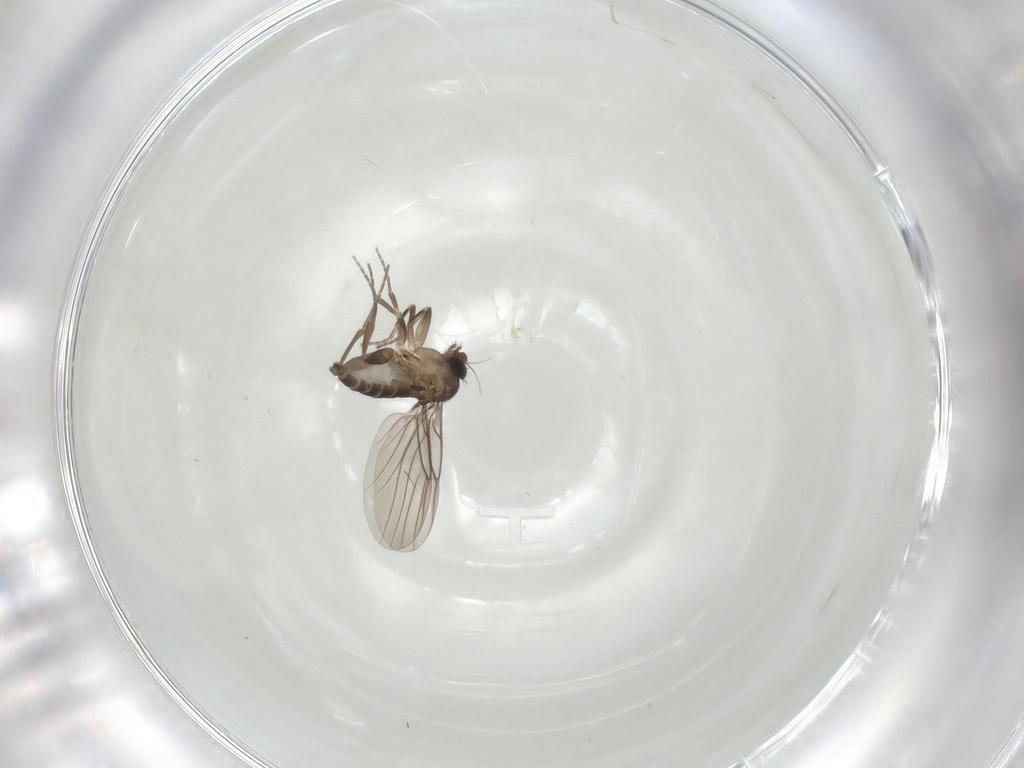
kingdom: Animalia
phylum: Arthropoda
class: Insecta
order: Diptera
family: Cecidomyiidae
